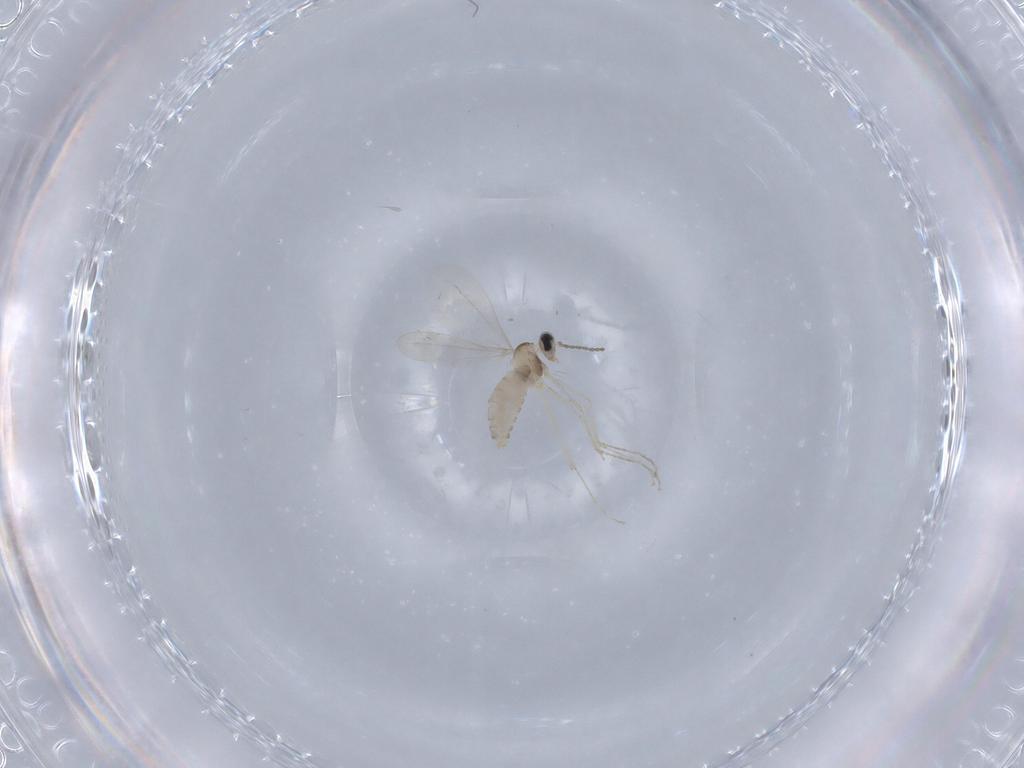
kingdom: Animalia
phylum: Arthropoda
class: Insecta
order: Diptera
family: Cecidomyiidae
